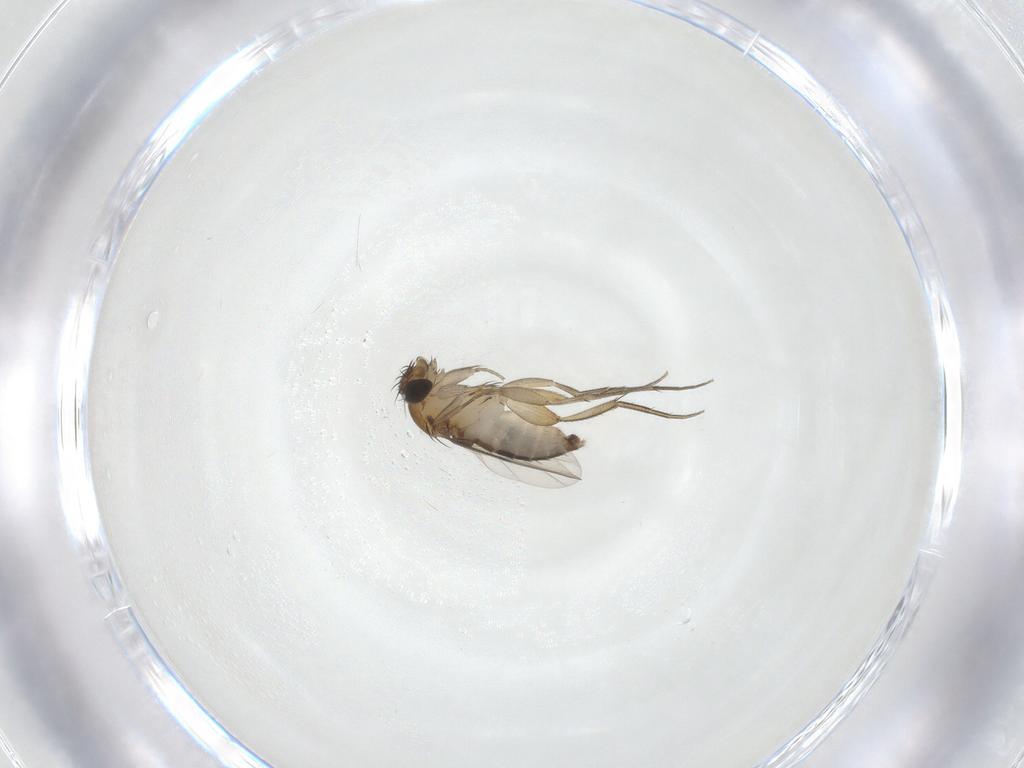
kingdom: Animalia
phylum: Arthropoda
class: Insecta
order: Diptera
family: Phoridae
